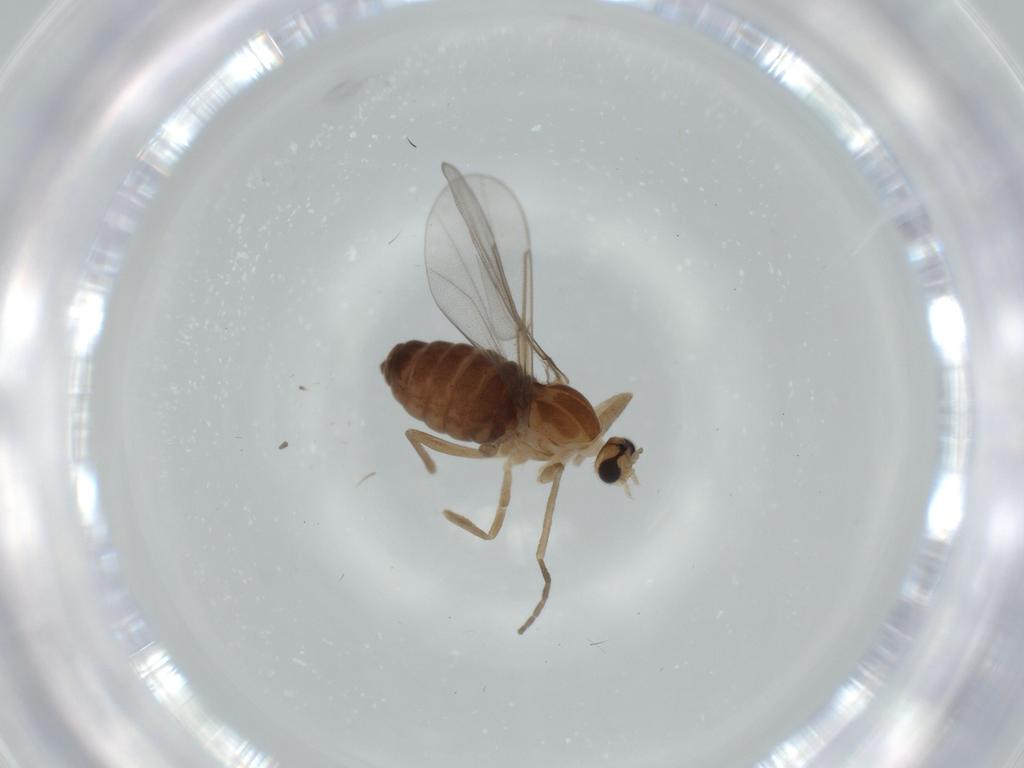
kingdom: Animalia
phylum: Arthropoda
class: Insecta
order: Diptera
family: Cecidomyiidae
